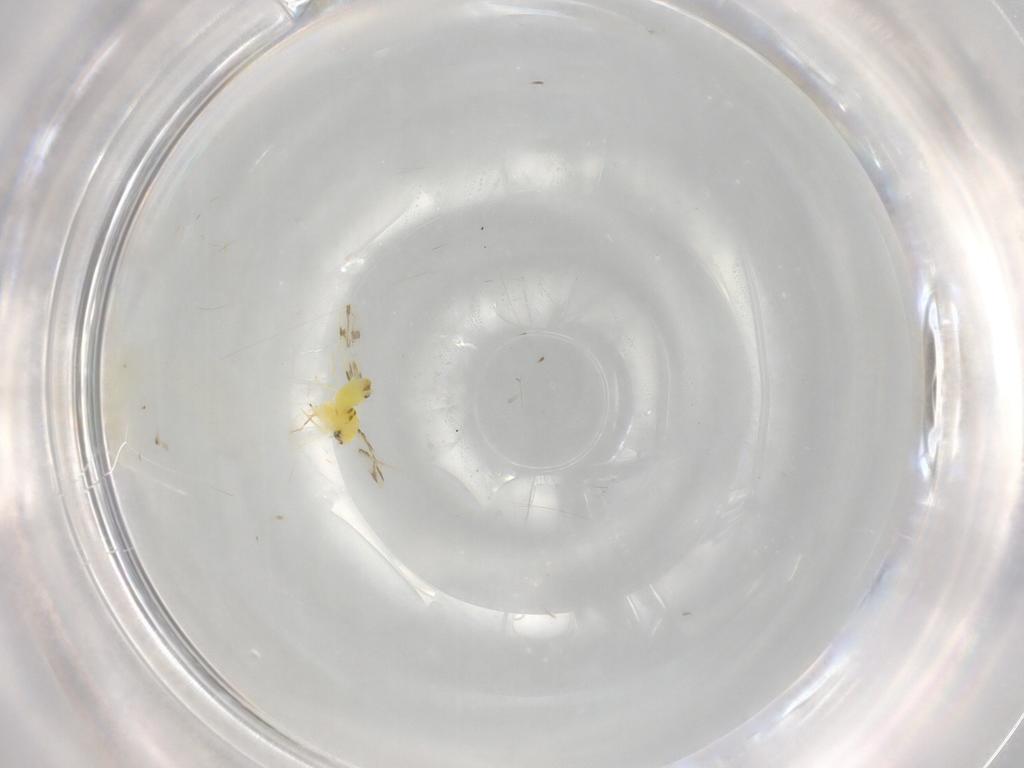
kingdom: Animalia
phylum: Arthropoda
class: Insecta
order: Hemiptera
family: Aleyrodidae
